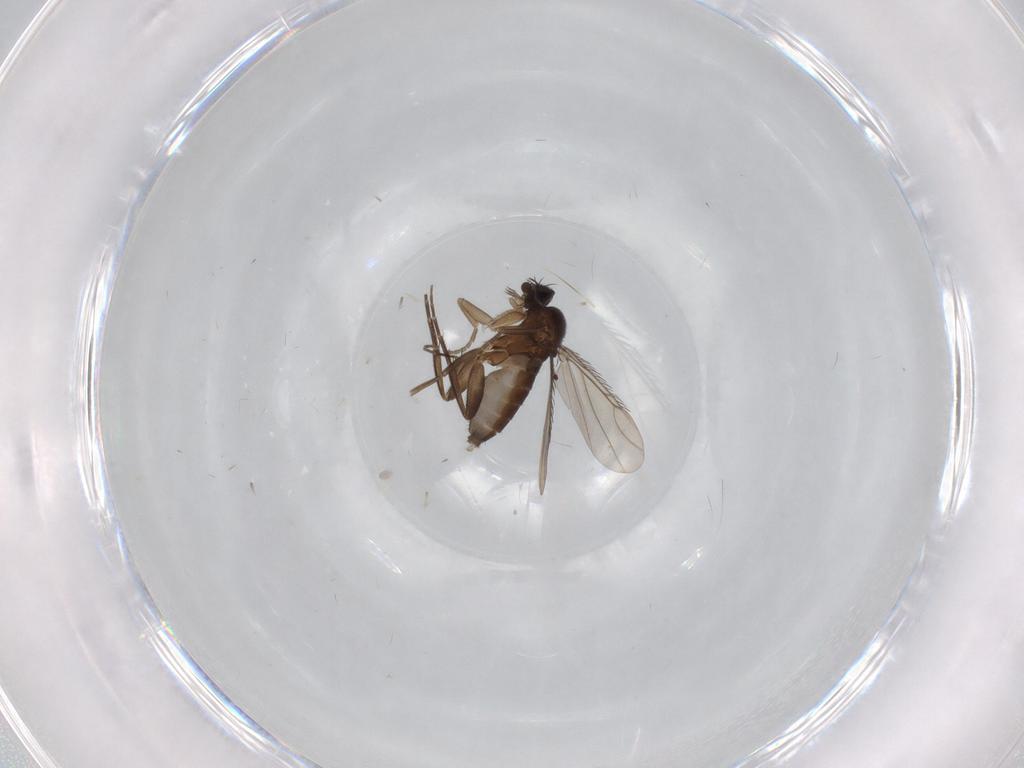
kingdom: Animalia
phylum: Arthropoda
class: Insecta
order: Diptera
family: Phoridae
